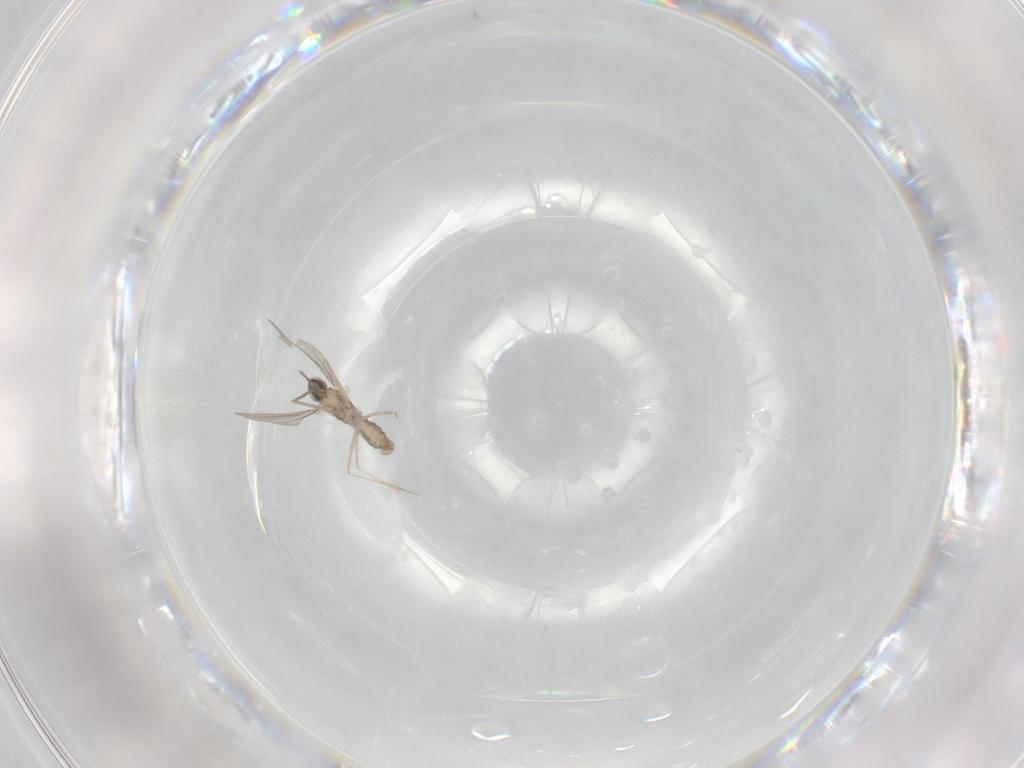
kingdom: Animalia
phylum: Arthropoda
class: Insecta
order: Diptera
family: Cecidomyiidae
